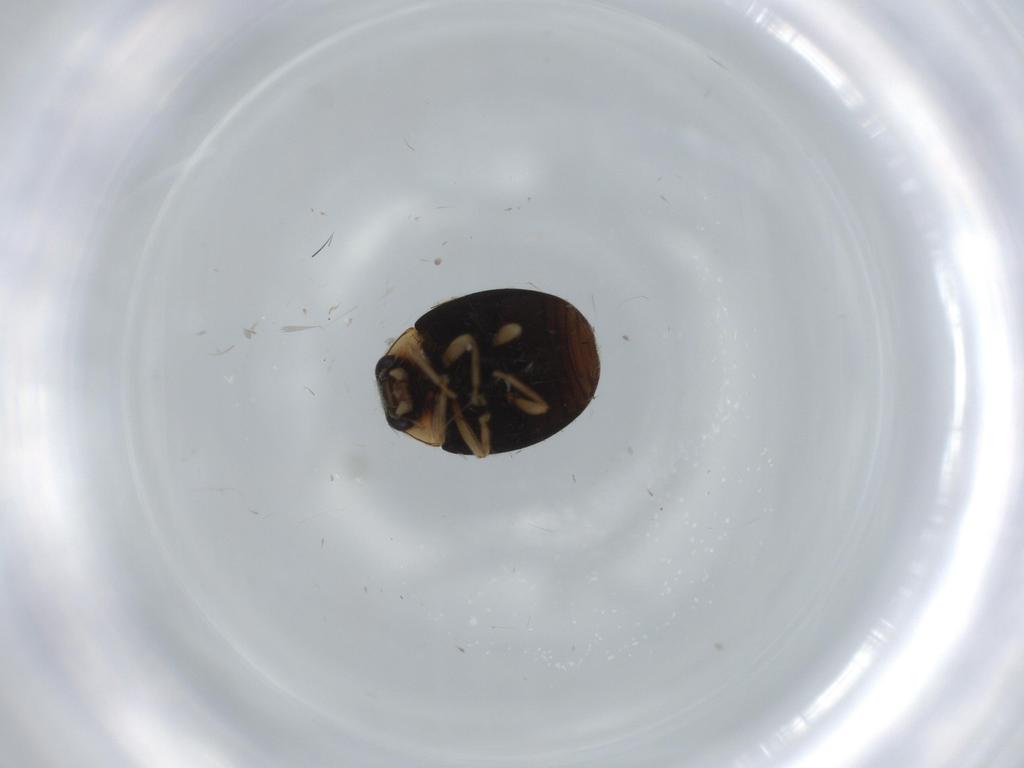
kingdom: Animalia
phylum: Arthropoda
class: Insecta
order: Coleoptera
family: Coccinellidae
